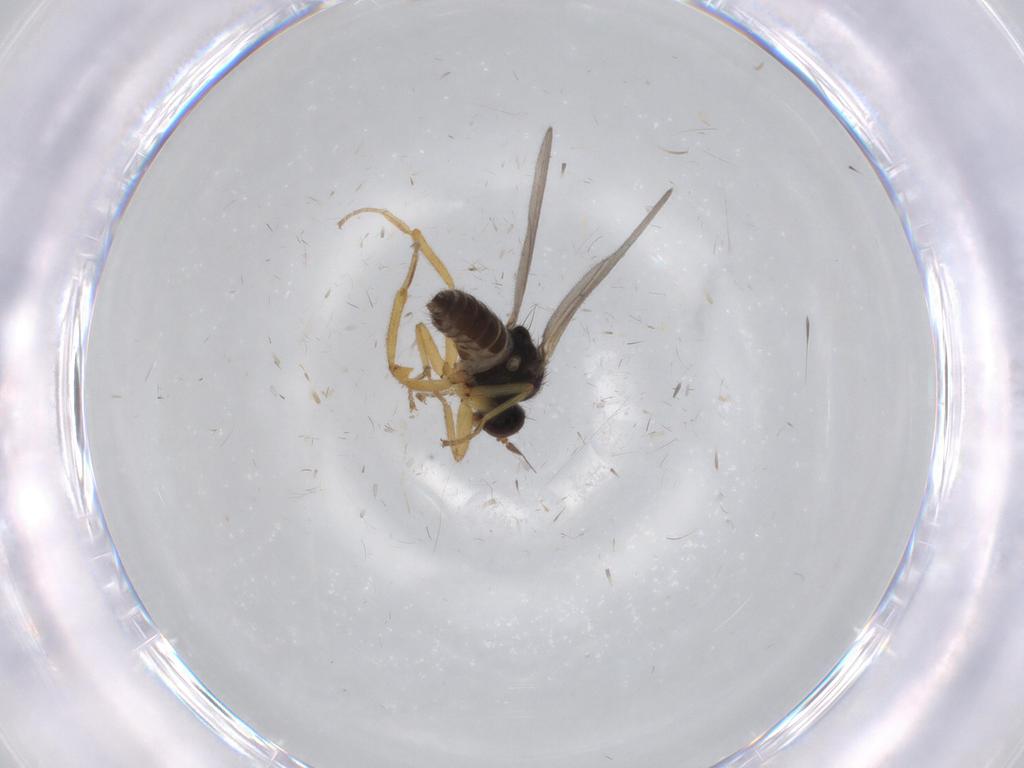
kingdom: Animalia
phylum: Arthropoda
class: Insecta
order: Diptera
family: Hybotidae
